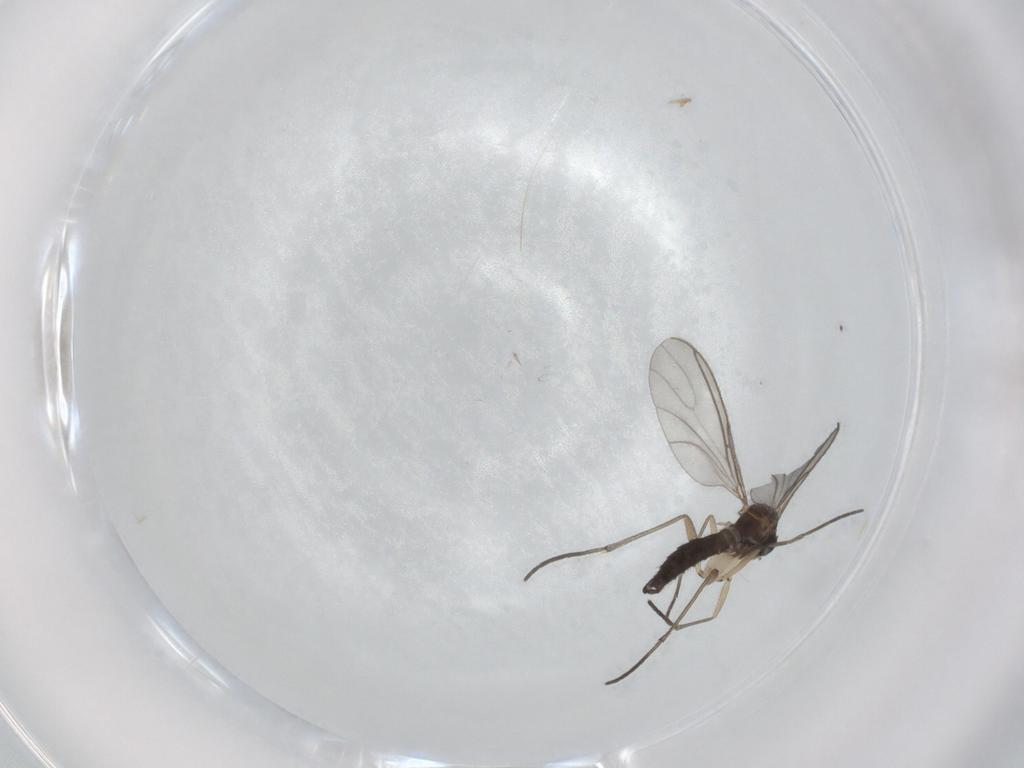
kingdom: Animalia
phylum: Arthropoda
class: Insecta
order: Diptera
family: Sciaridae
